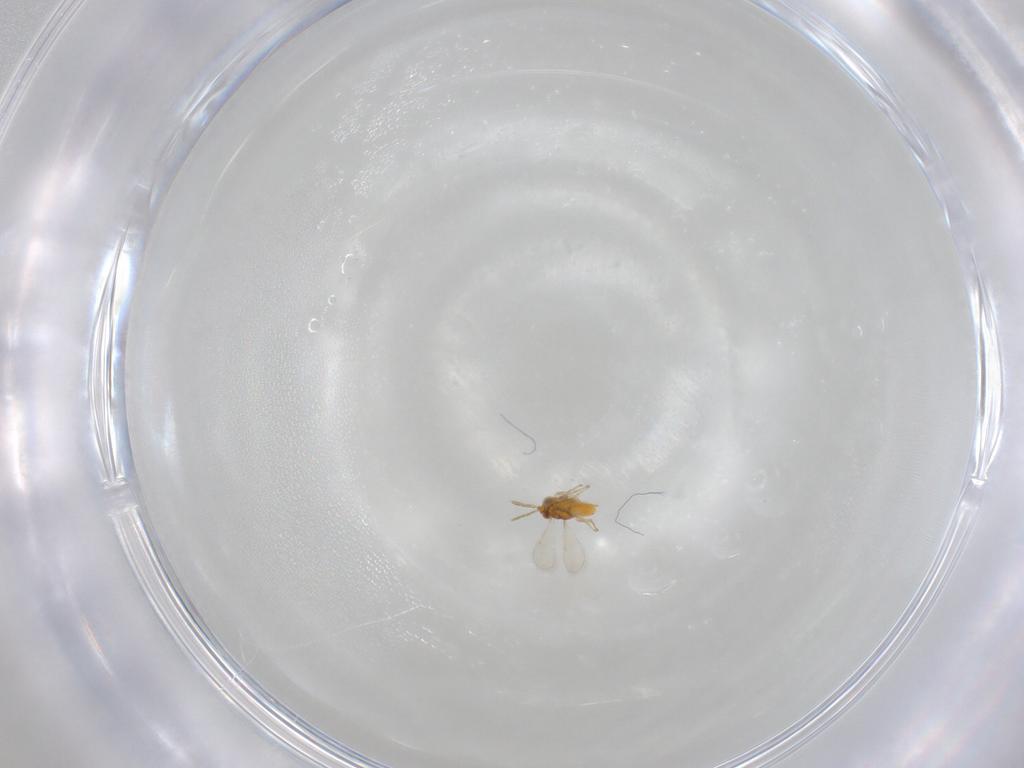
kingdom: Animalia
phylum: Arthropoda
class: Insecta
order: Hymenoptera
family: Aphelinidae
